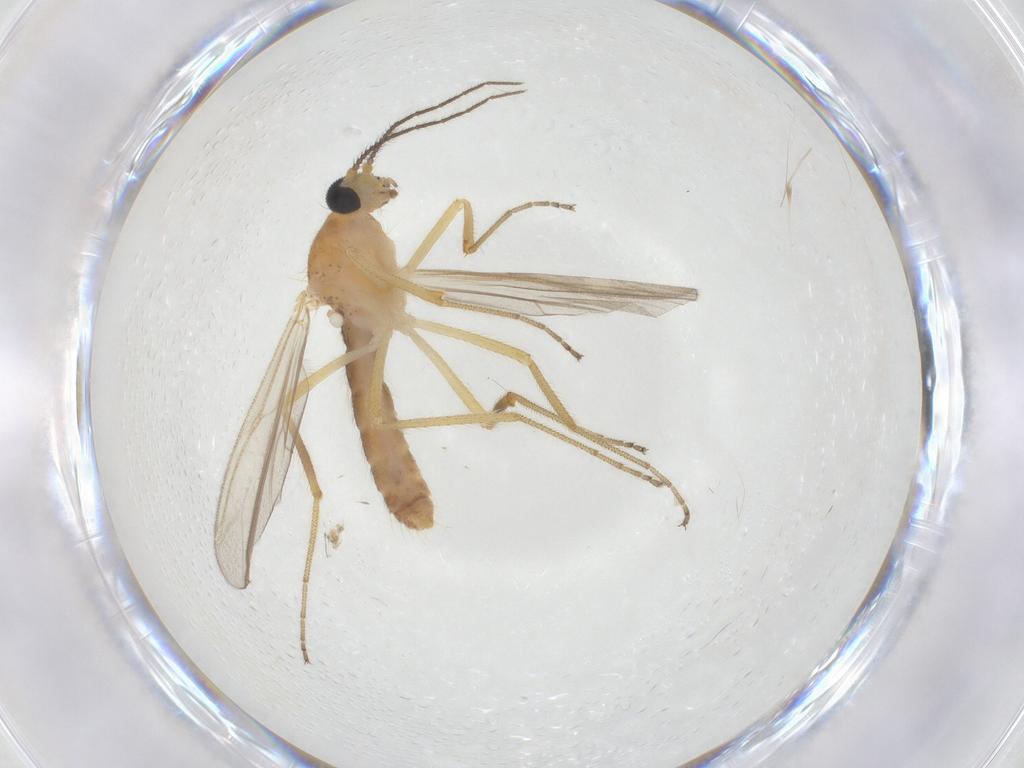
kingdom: Animalia
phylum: Arthropoda
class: Insecta
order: Diptera
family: Ceratopogonidae
